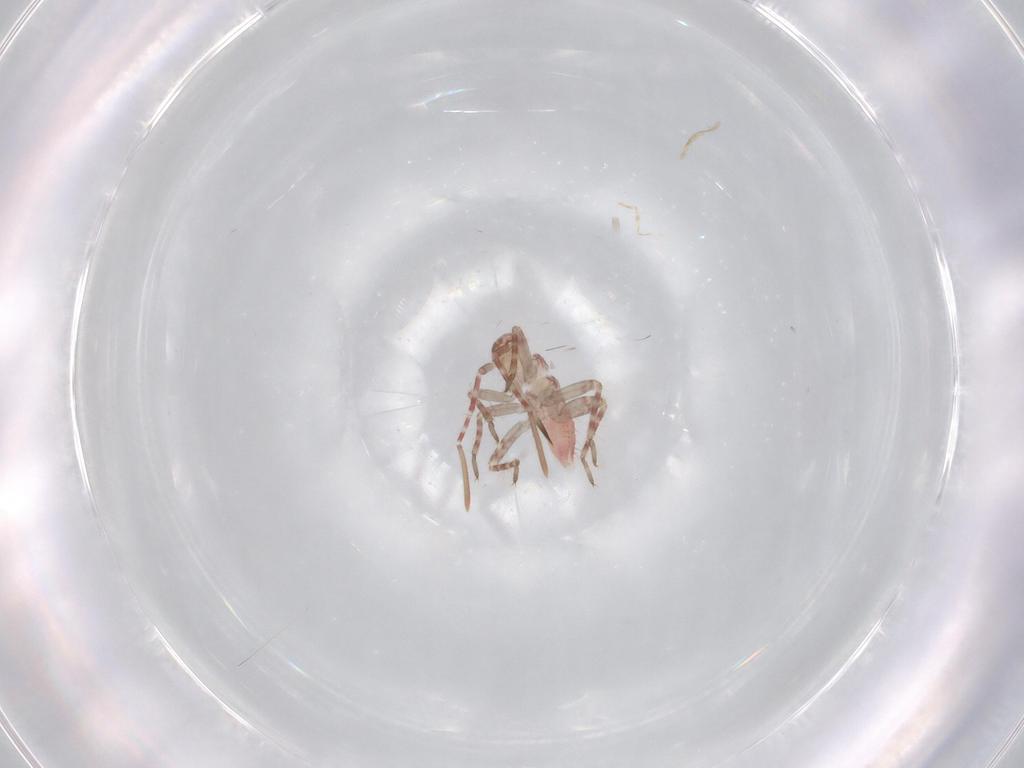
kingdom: Animalia
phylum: Arthropoda
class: Insecta
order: Hemiptera
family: Miridae
